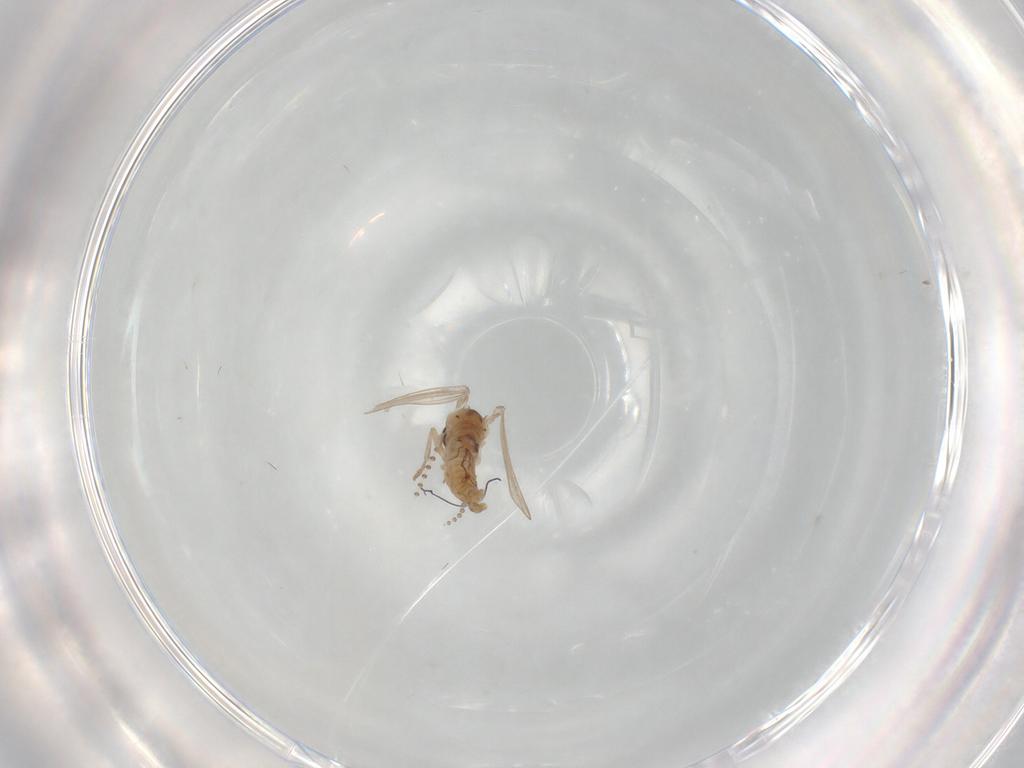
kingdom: Animalia
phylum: Arthropoda
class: Insecta
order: Diptera
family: Psychodidae
